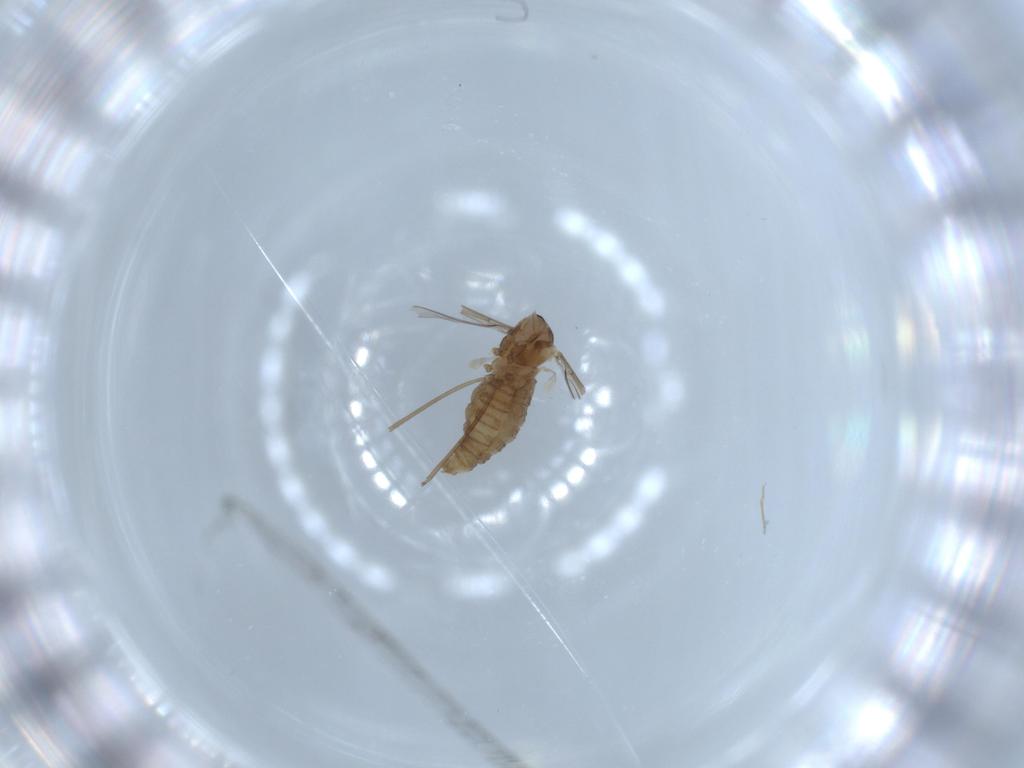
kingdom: Animalia
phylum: Arthropoda
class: Insecta
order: Diptera
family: Cecidomyiidae
